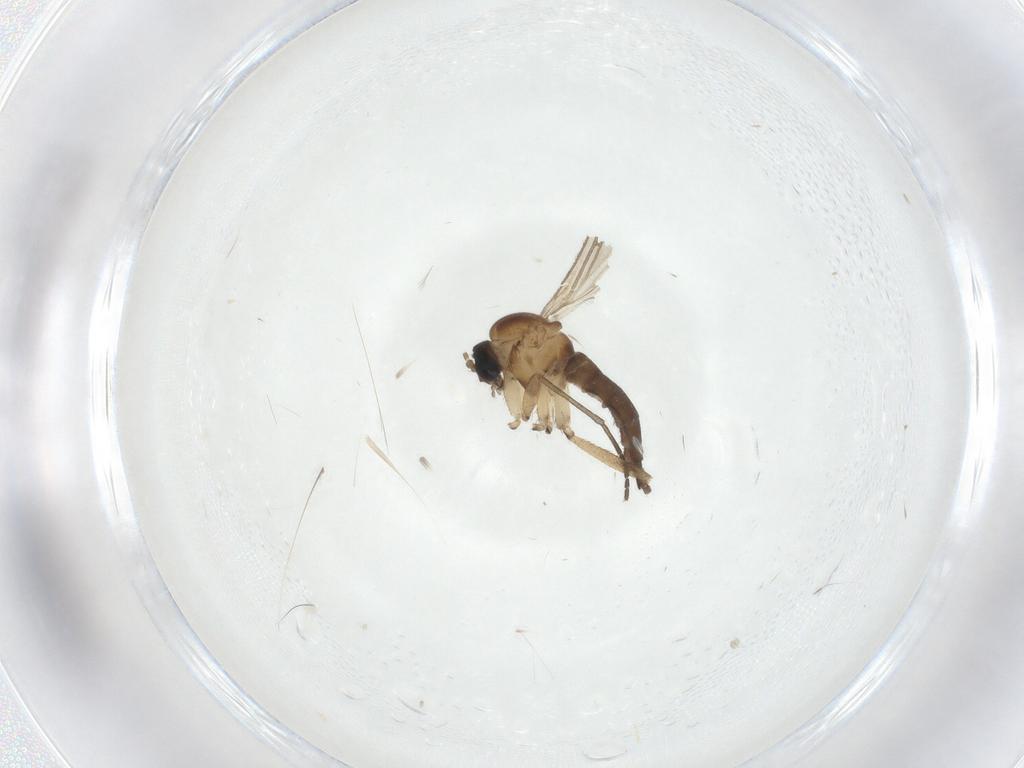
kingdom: Animalia
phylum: Arthropoda
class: Insecta
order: Diptera
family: Sciaridae
